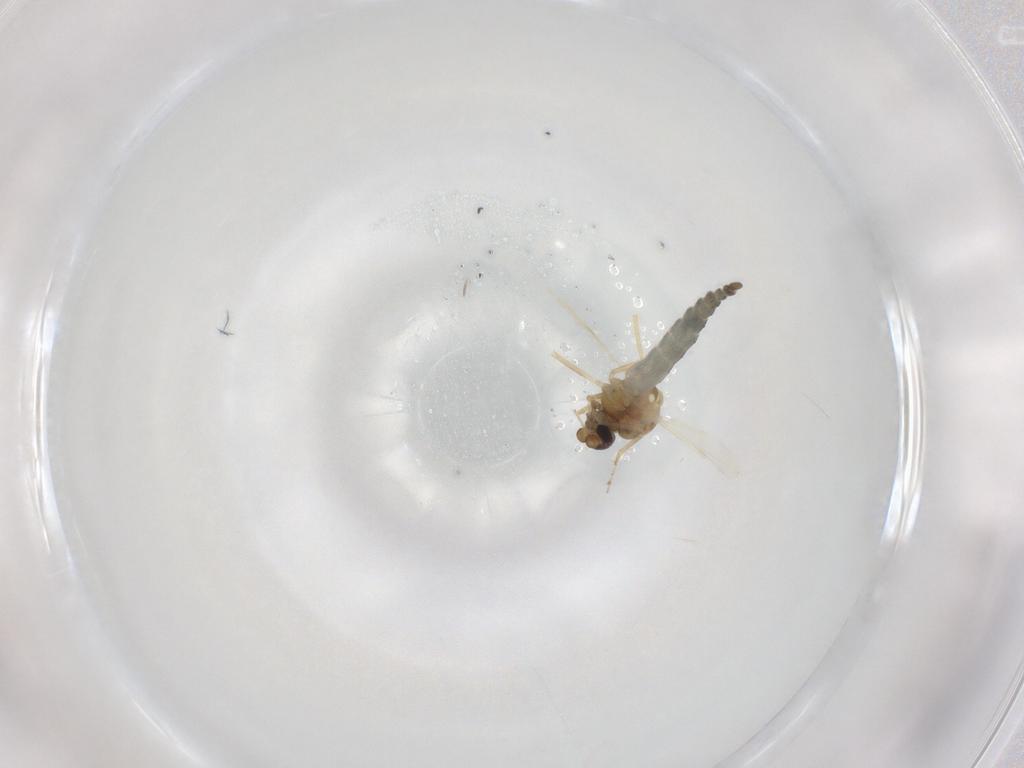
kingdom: Animalia
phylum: Arthropoda
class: Insecta
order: Diptera
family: Ceratopogonidae
